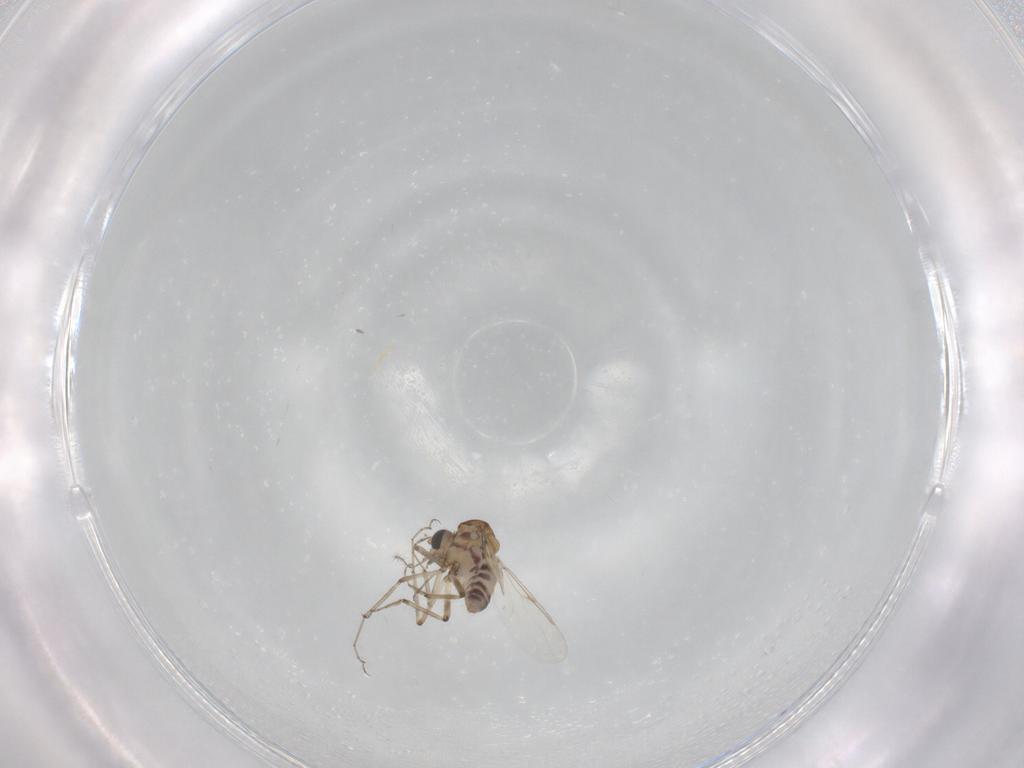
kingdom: Animalia
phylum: Arthropoda
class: Insecta
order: Diptera
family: Ceratopogonidae
